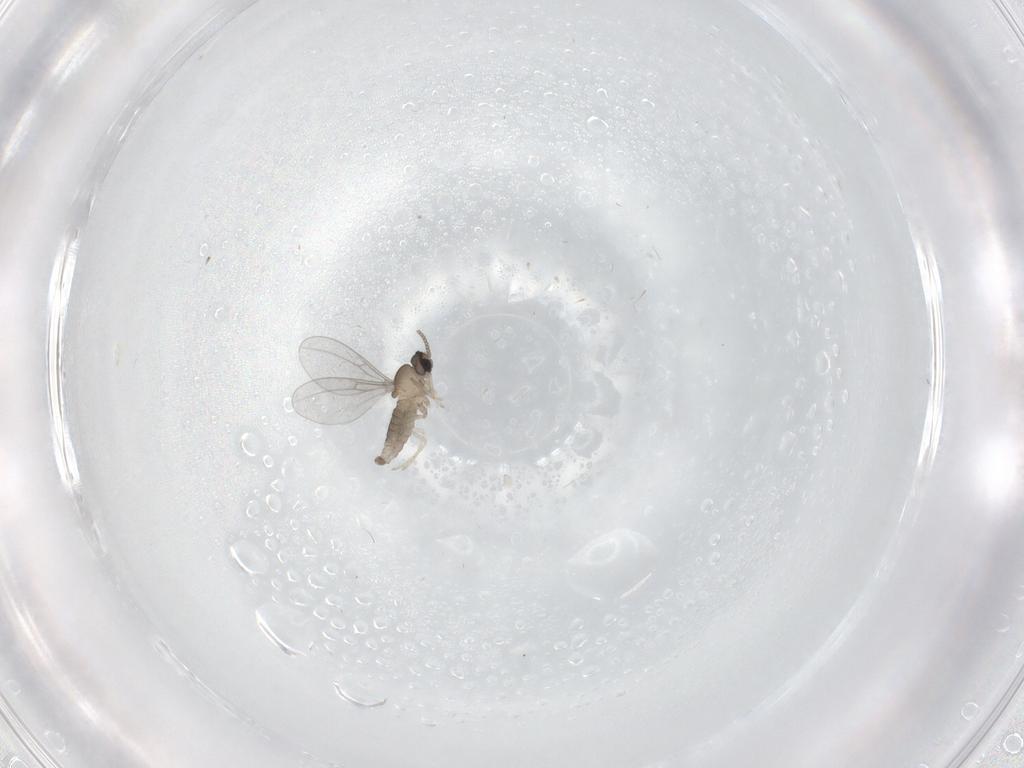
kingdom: Animalia
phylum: Arthropoda
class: Insecta
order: Diptera
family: Cecidomyiidae
